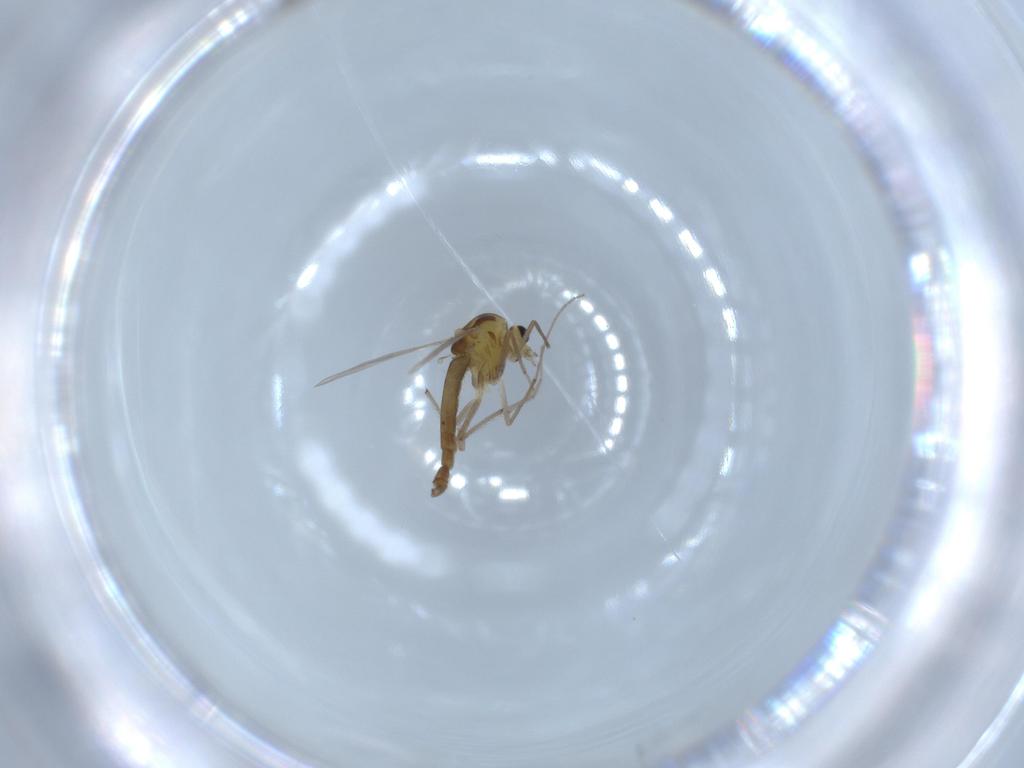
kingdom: Animalia
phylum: Arthropoda
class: Insecta
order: Diptera
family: Chironomidae
